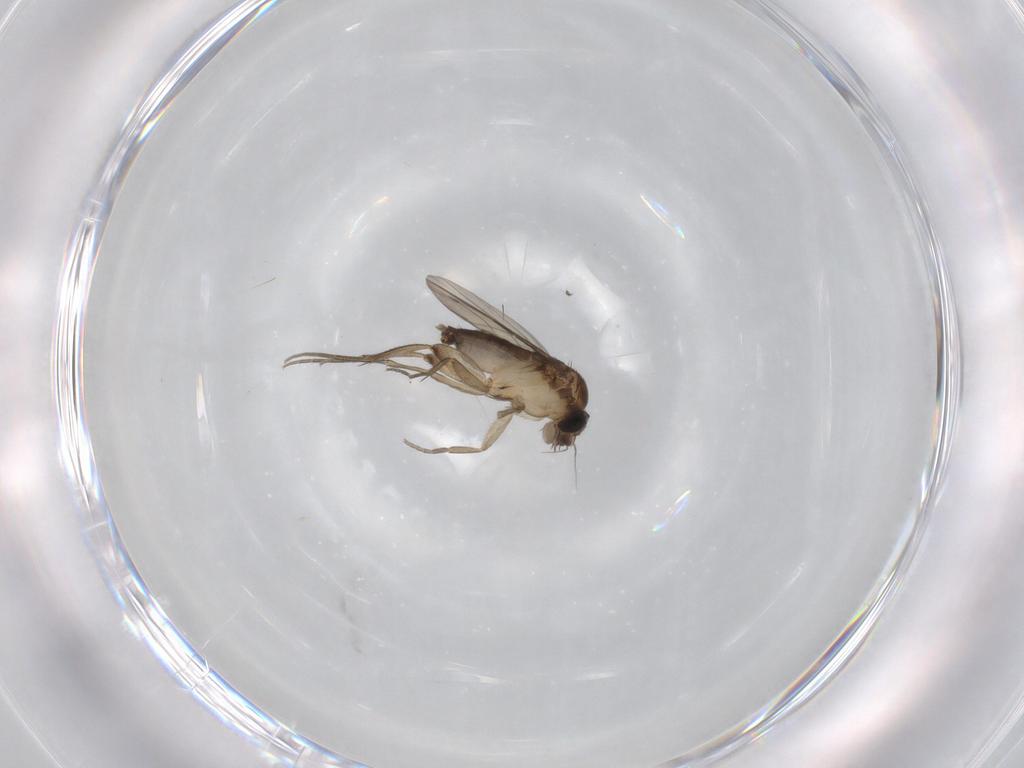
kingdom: Animalia
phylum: Arthropoda
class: Insecta
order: Diptera
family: Phoridae
